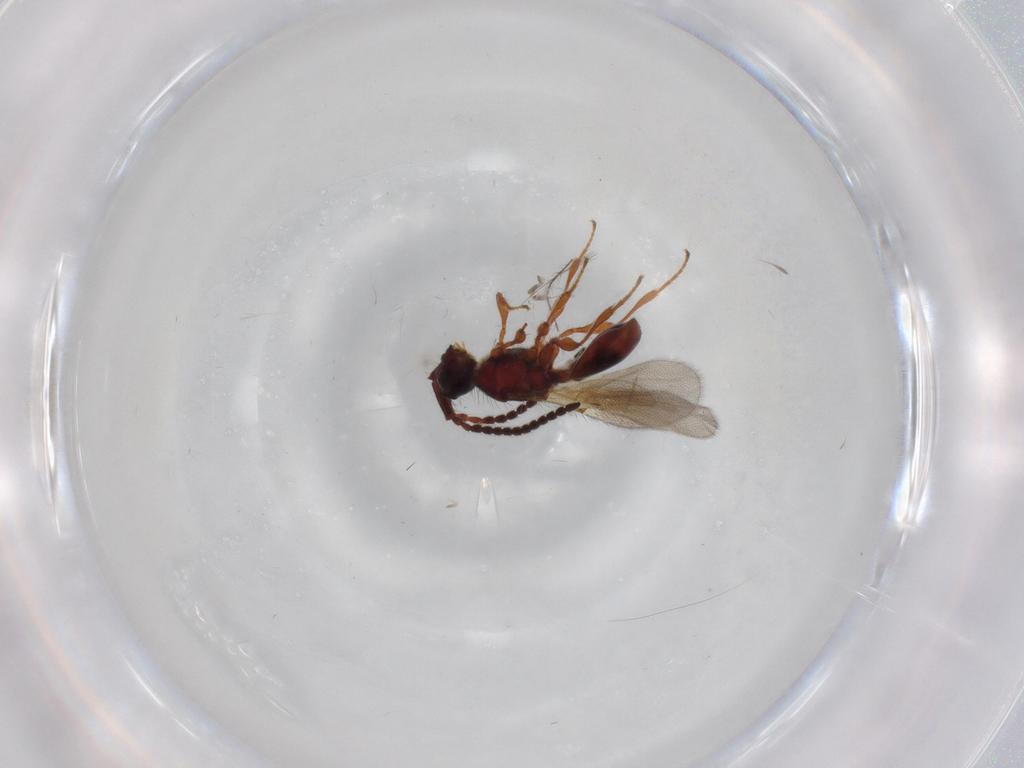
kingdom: Animalia
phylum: Arthropoda
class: Insecta
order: Hymenoptera
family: Diapriidae
